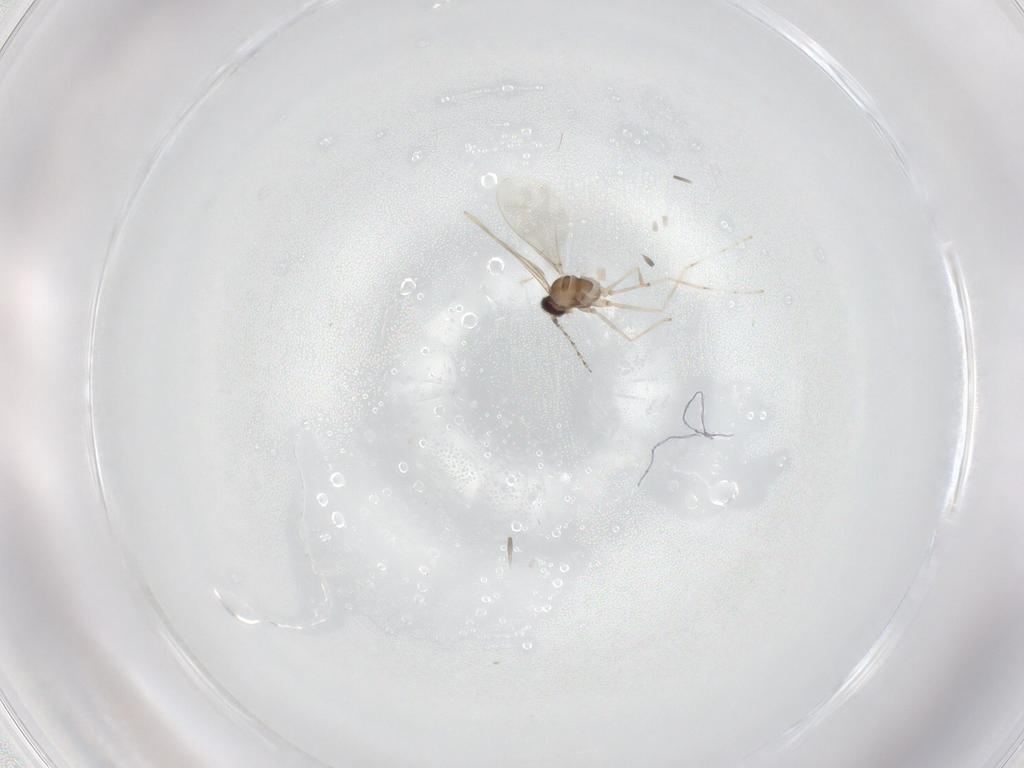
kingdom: Animalia
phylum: Arthropoda
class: Insecta
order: Diptera
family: Cecidomyiidae
